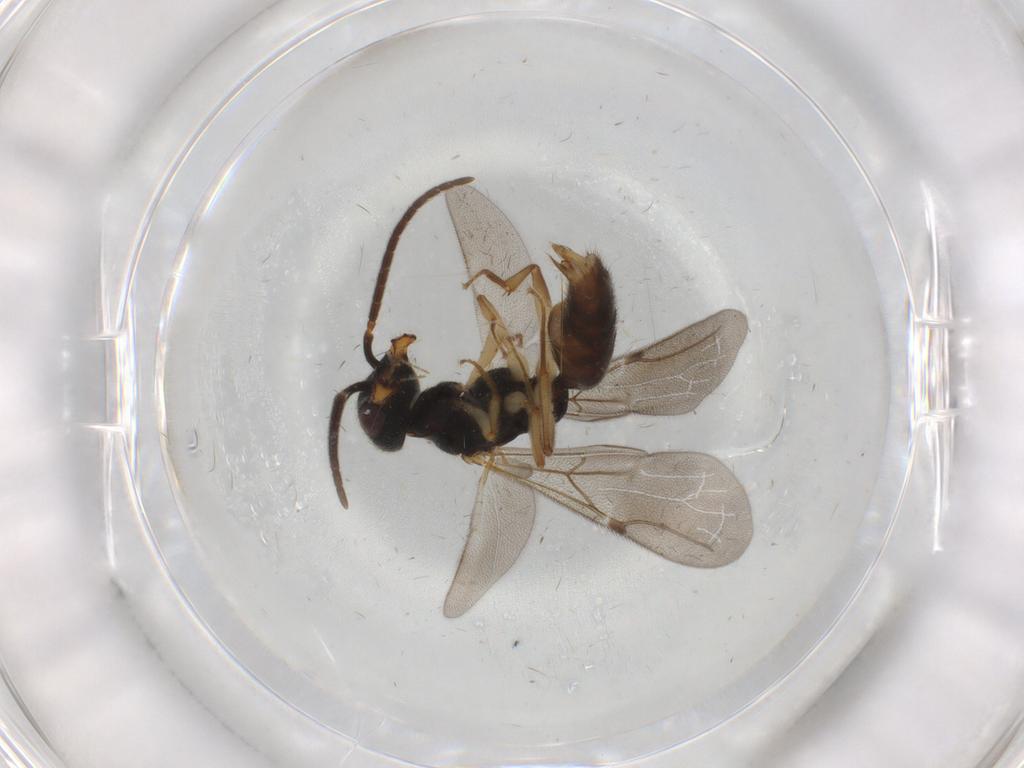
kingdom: Animalia
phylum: Arthropoda
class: Insecta
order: Hymenoptera
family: Bethylidae
